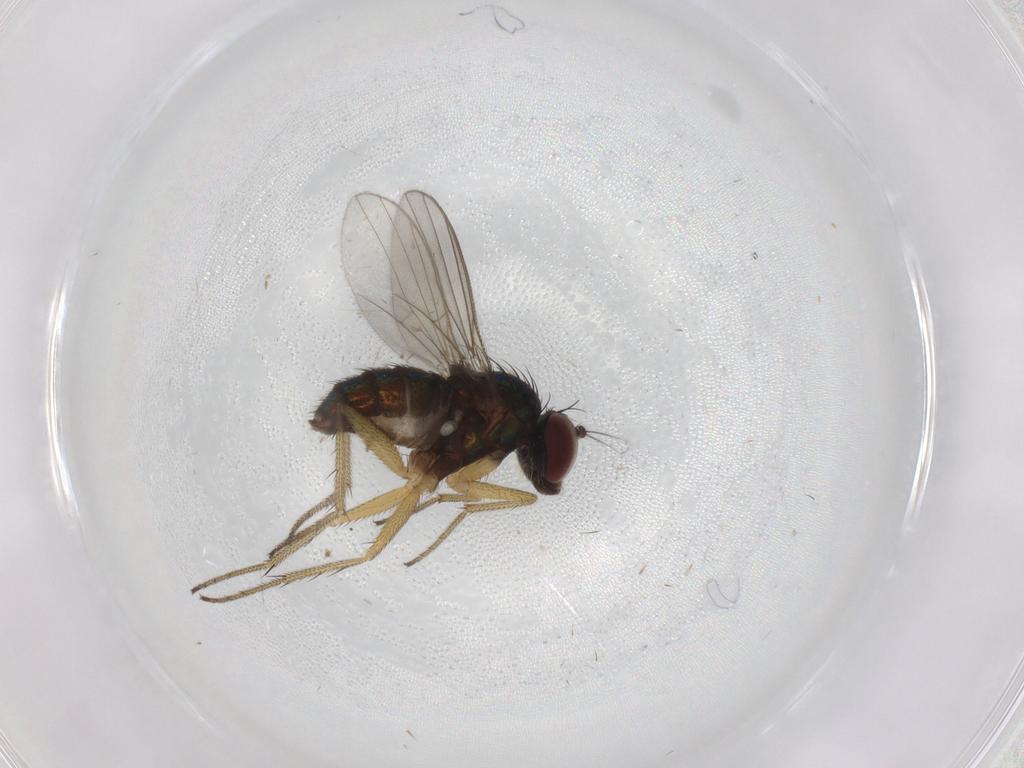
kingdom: Animalia
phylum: Arthropoda
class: Insecta
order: Diptera
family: Dolichopodidae
